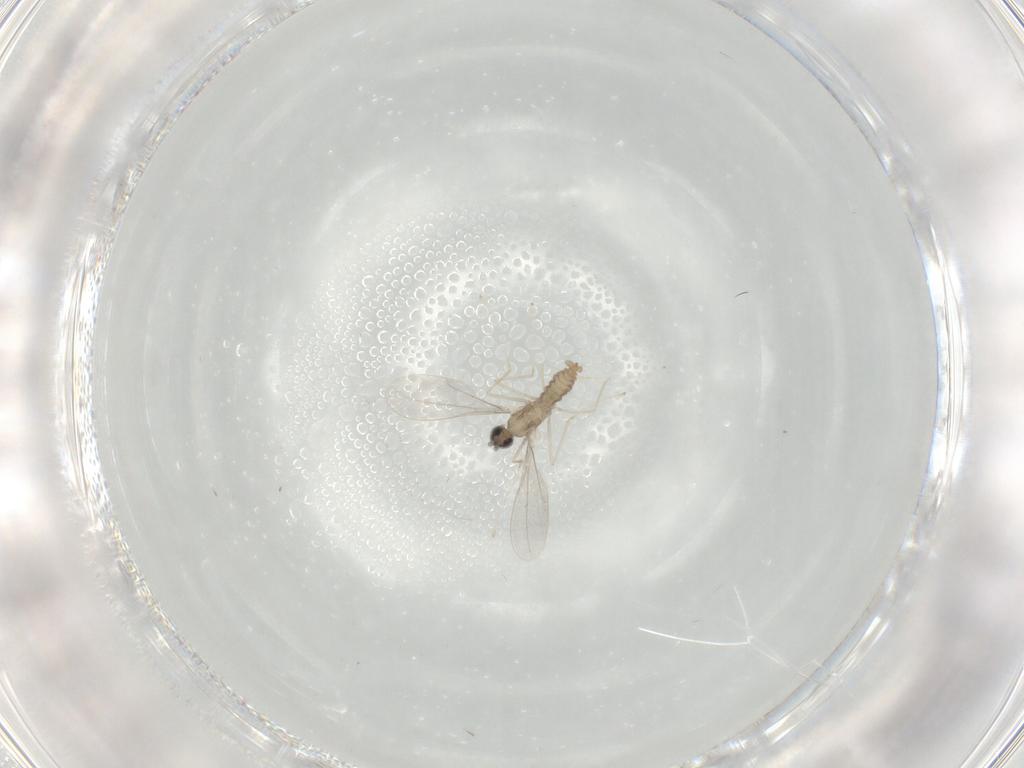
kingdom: Animalia
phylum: Arthropoda
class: Insecta
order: Diptera
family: Cecidomyiidae
